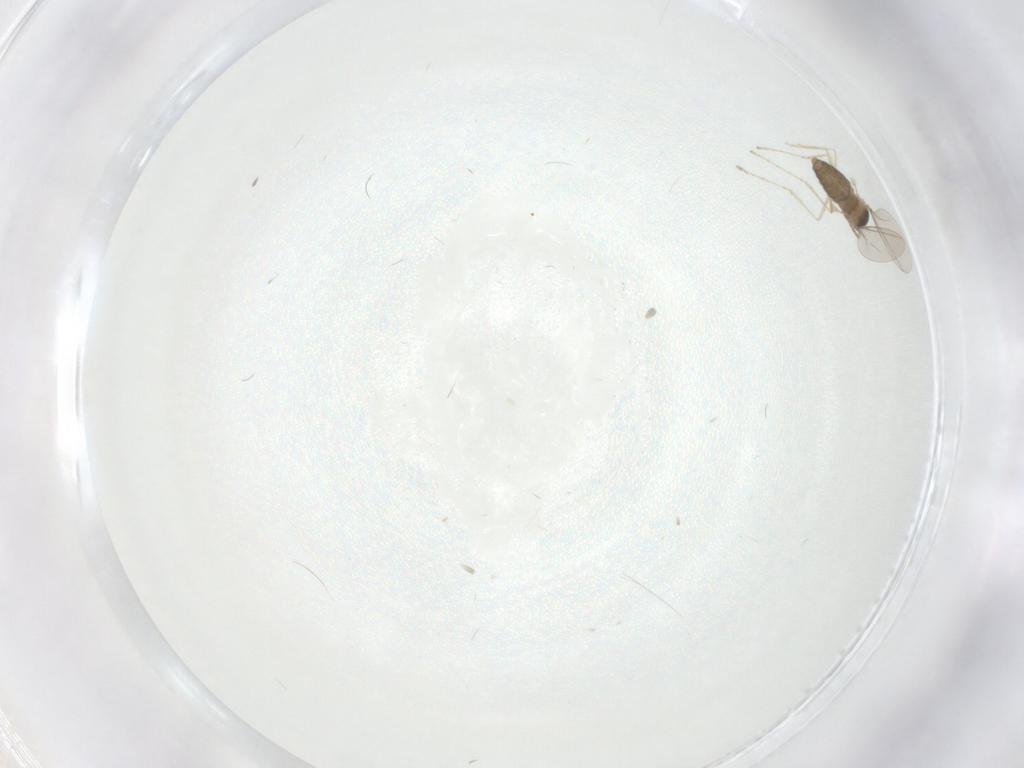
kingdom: Animalia
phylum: Arthropoda
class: Insecta
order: Diptera
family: Cecidomyiidae
